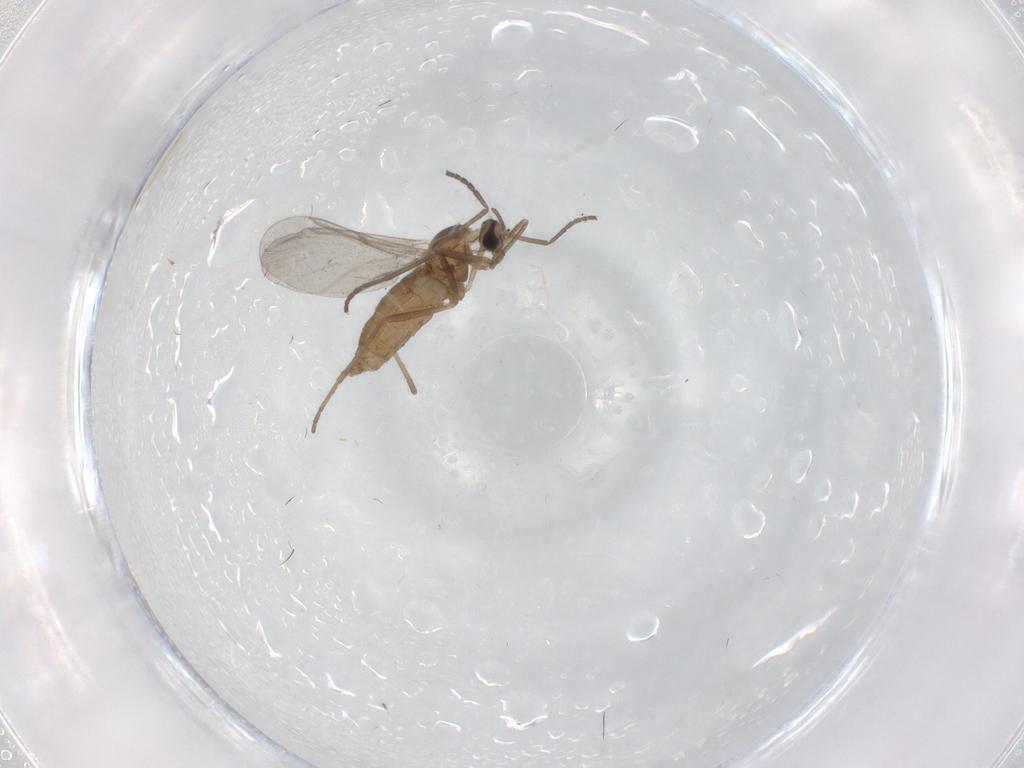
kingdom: Animalia
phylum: Arthropoda
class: Insecta
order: Diptera
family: Cecidomyiidae
